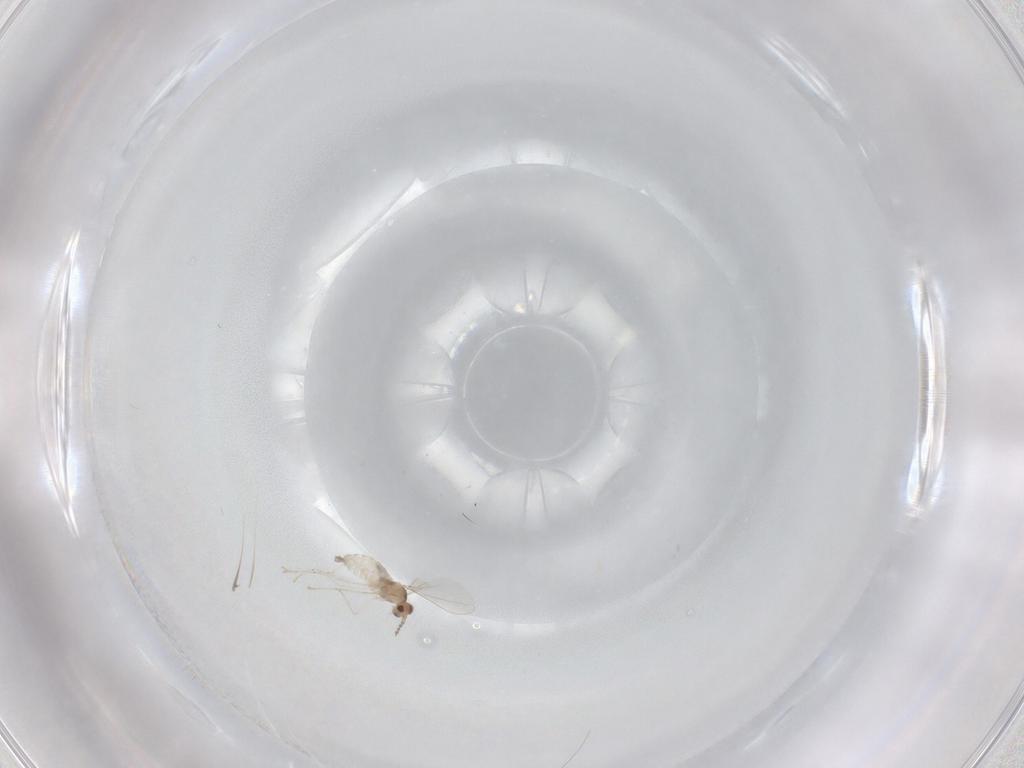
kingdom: Animalia
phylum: Arthropoda
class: Insecta
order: Diptera
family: Cecidomyiidae
